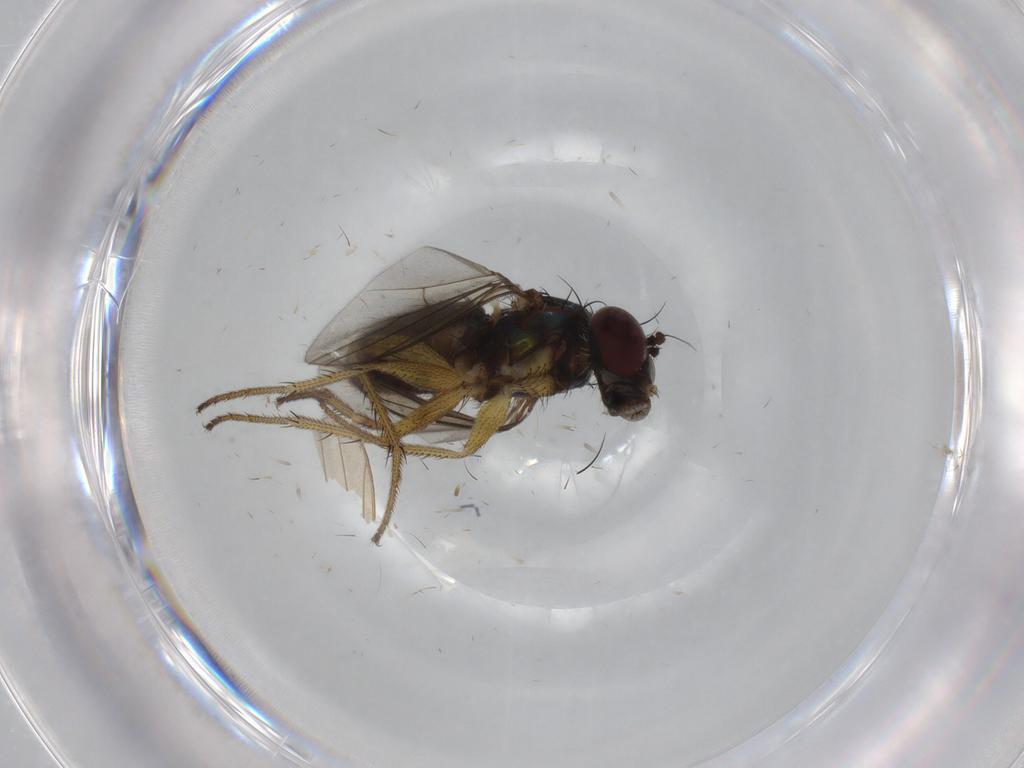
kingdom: Animalia
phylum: Arthropoda
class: Insecta
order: Diptera
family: Dolichopodidae
